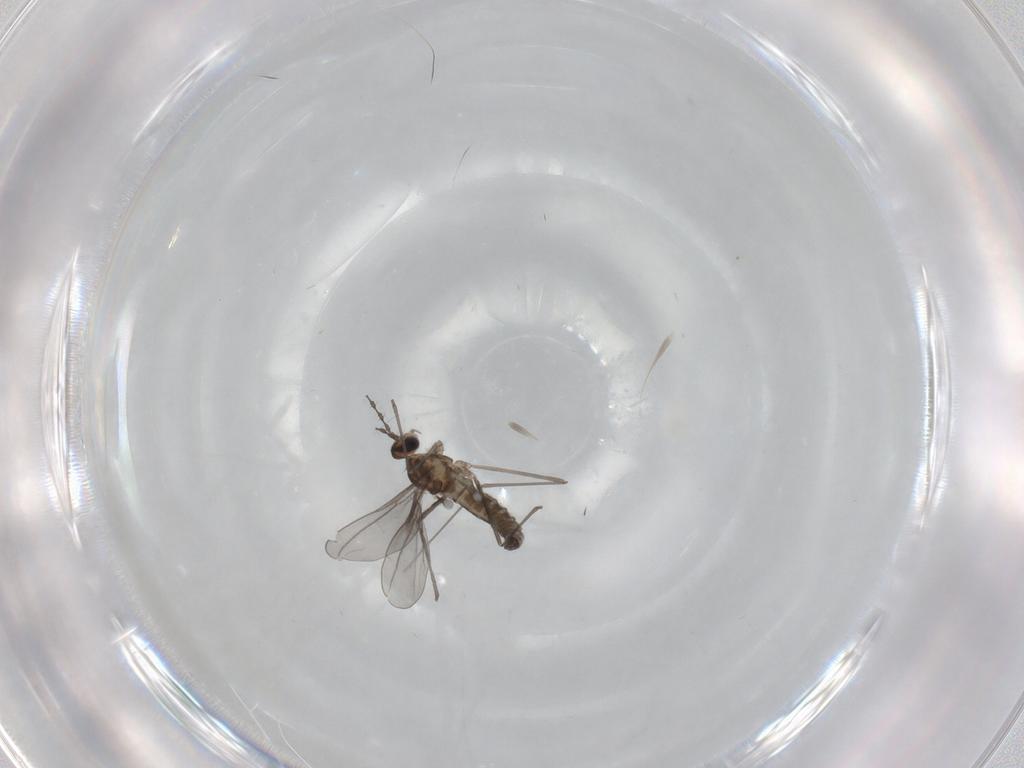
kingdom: Animalia
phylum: Arthropoda
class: Insecta
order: Diptera
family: Cecidomyiidae
